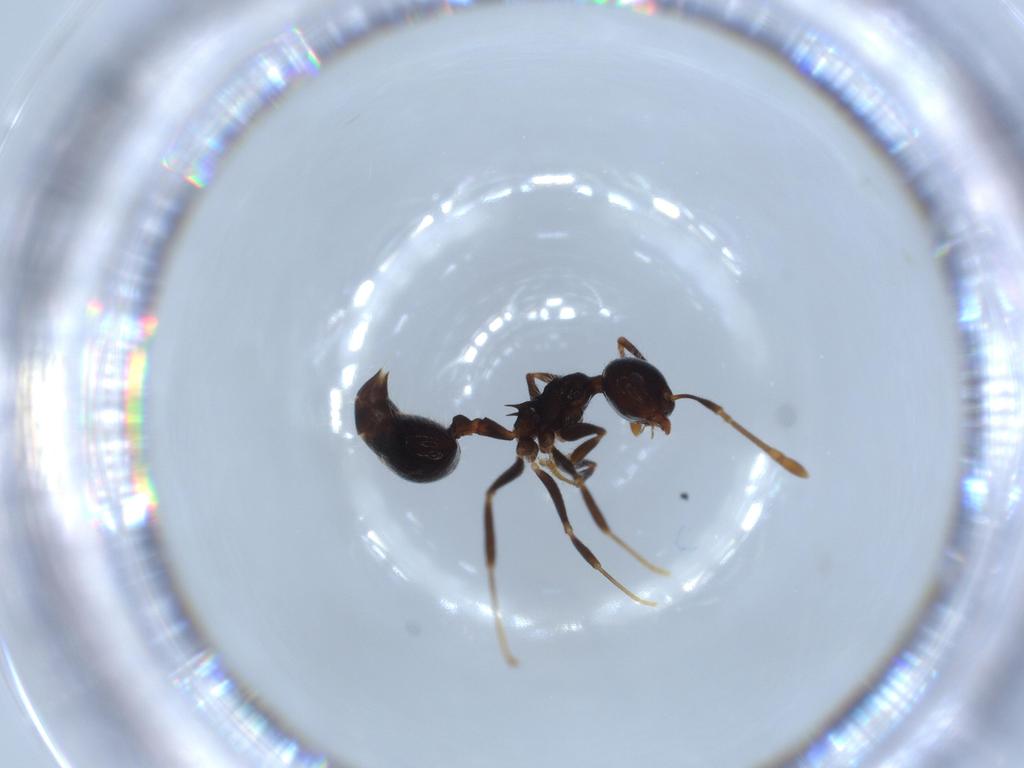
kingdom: Animalia
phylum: Arthropoda
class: Insecta
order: Hymenoptera
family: Formicidae
